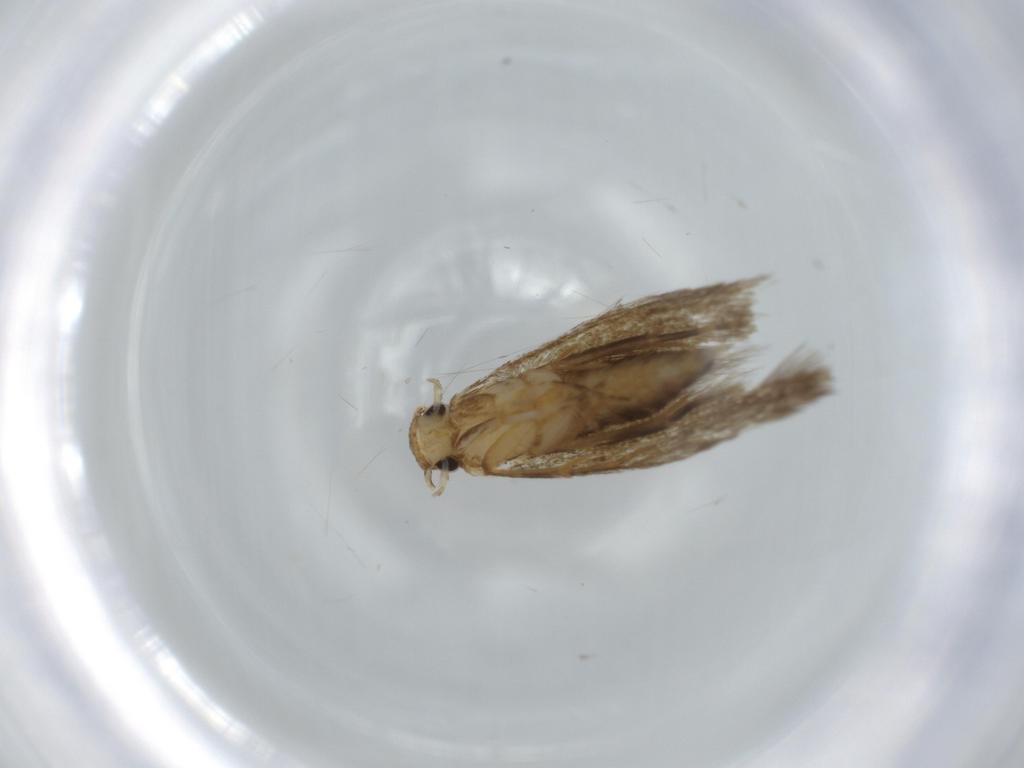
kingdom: Animalia
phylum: Arthropoda
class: Insecta
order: Lepidoptera
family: Tineidae
